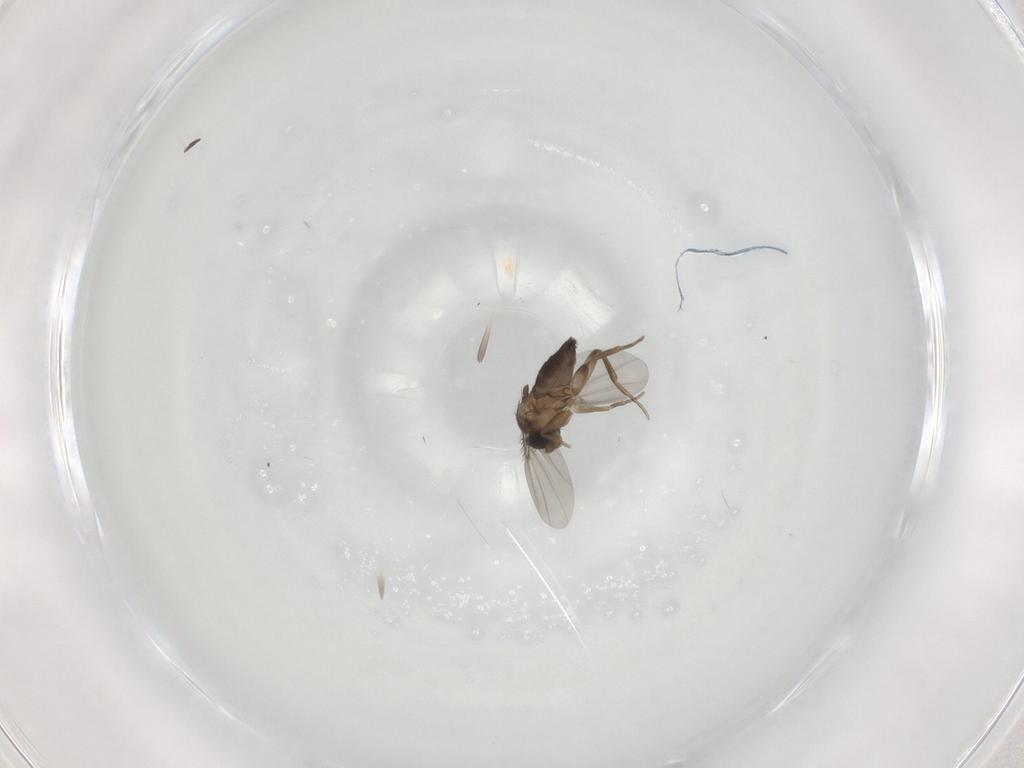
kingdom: Animalia
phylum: Arthropoda
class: Insecta
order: Diptera
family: Phoridae
